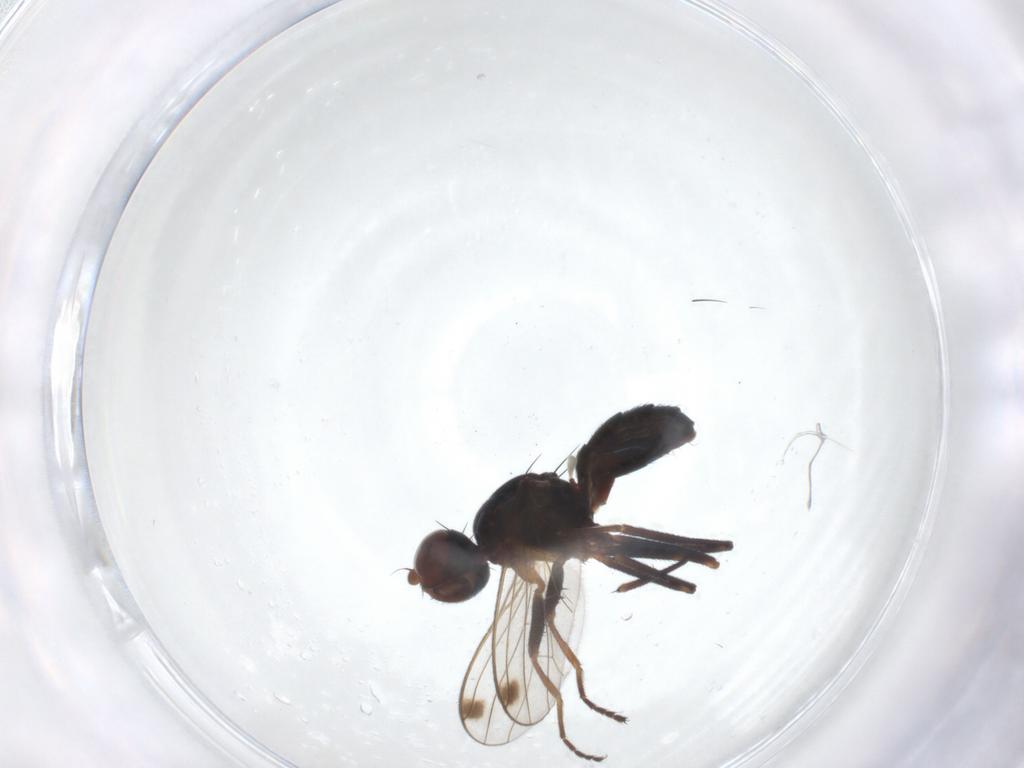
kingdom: Animalia
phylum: Arthropoda
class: Insecta
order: Diptera
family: Sepsidae
